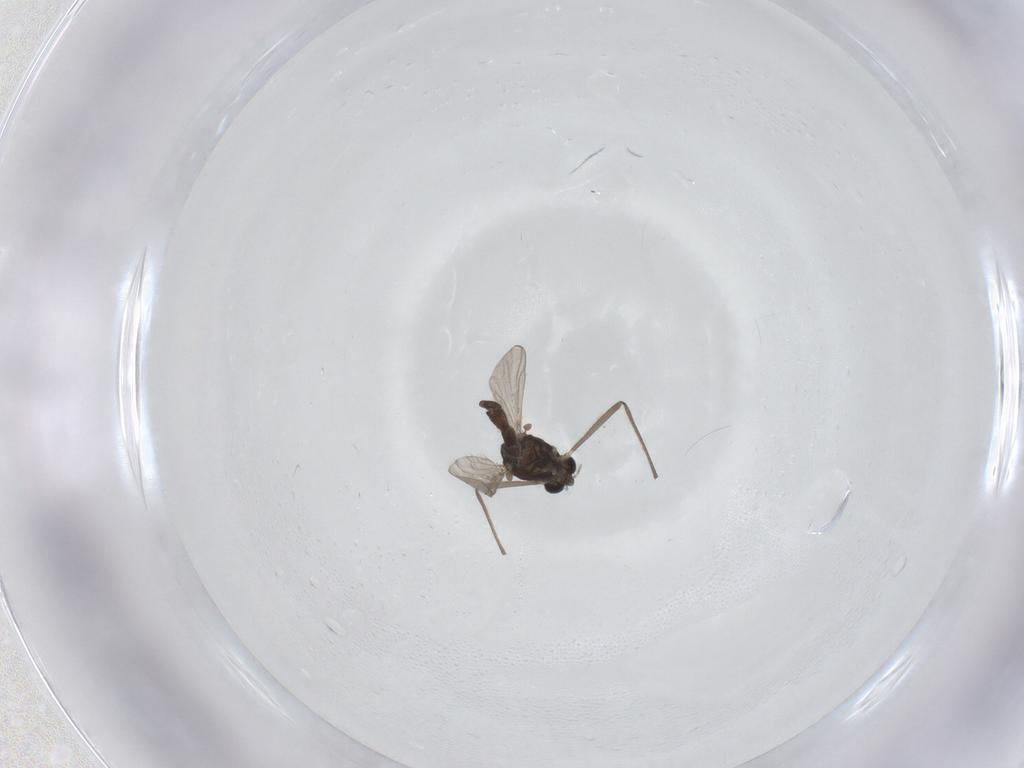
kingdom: Animalia
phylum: Arthropoda
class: Insecta
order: Diptera
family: Chironomidae
